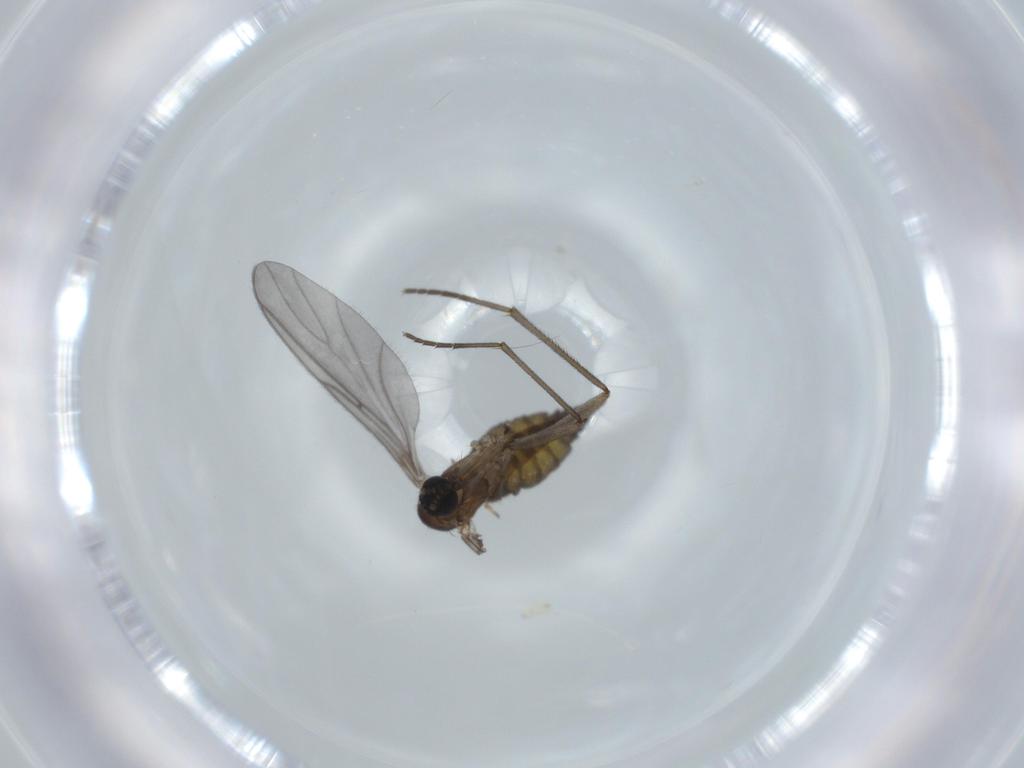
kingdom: Animalia
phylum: Arthropoda
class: Insecta
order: Diptera
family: Sciaridae
